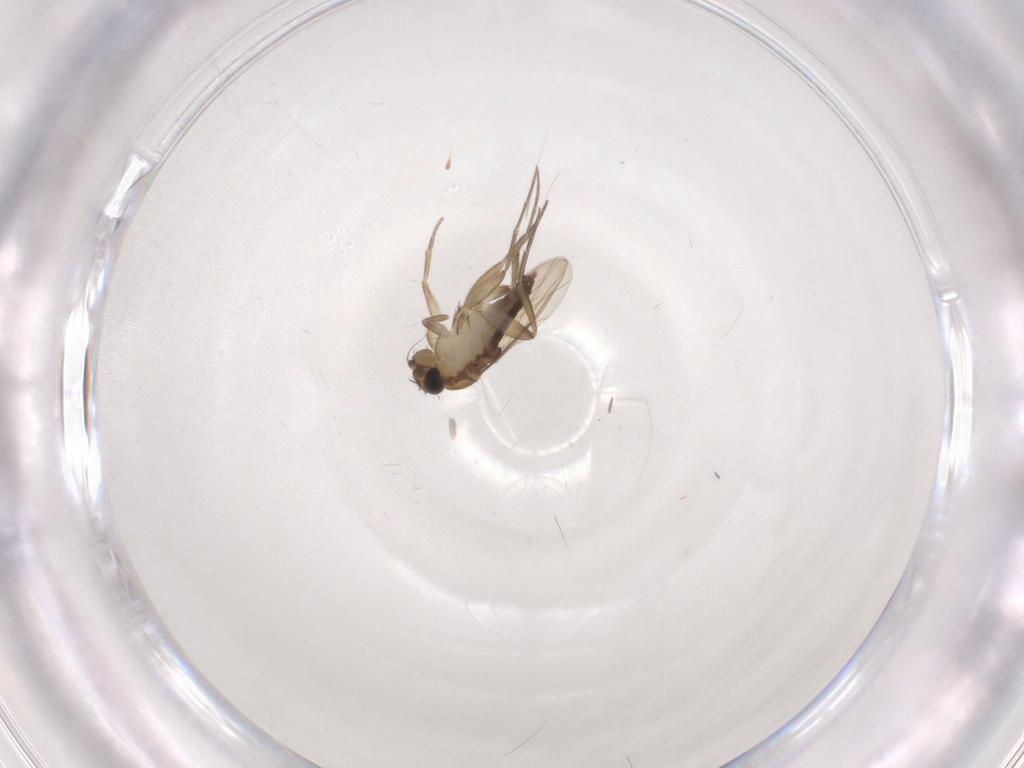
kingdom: Animalia
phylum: Arthropoda
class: Insecta
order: Diptera
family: Phoridae
